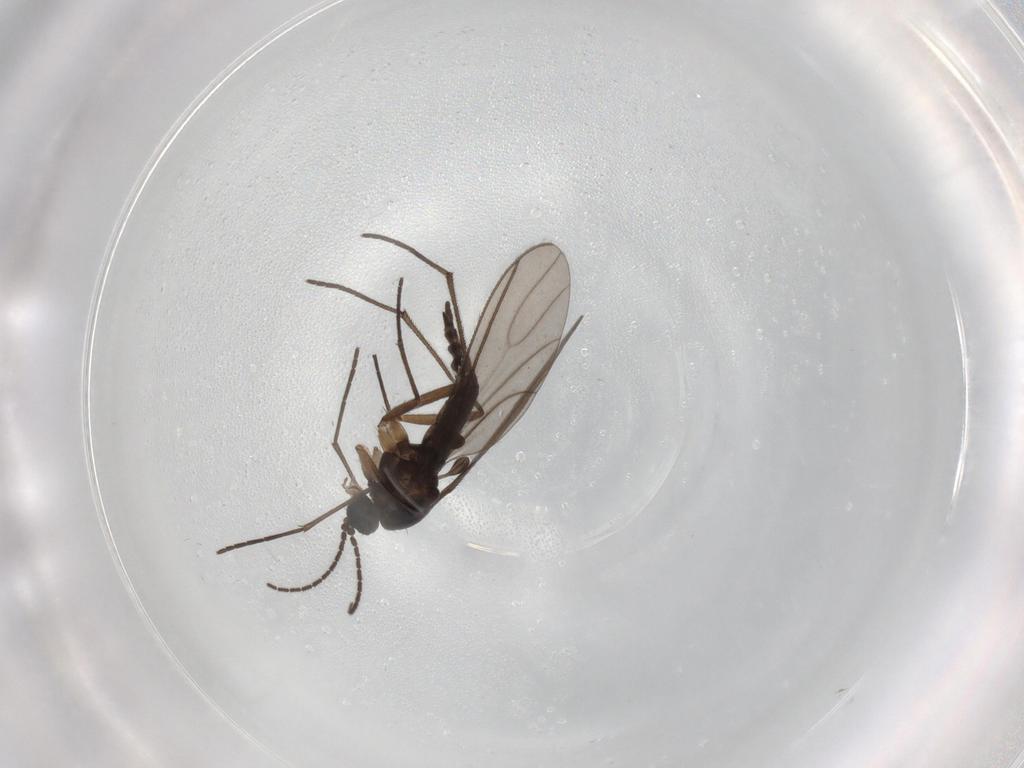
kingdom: Animalia
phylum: Arthropoda
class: Insecta
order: Diptera
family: Cecidomyiidae
